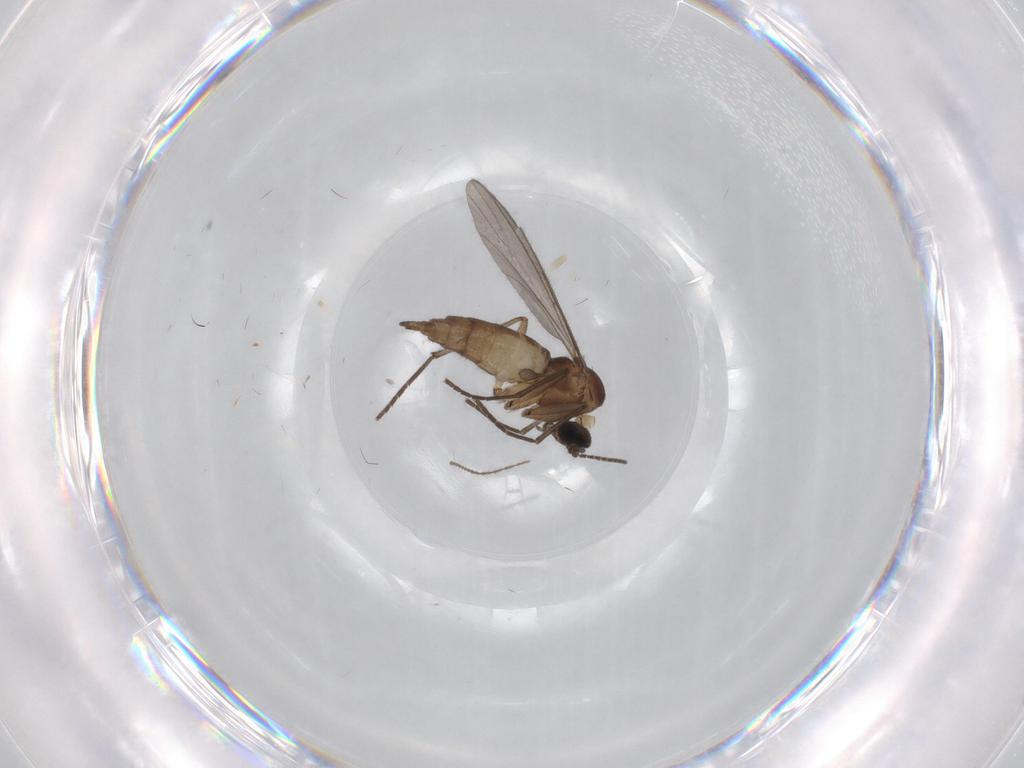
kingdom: Animalia
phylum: Arthropoda
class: Insecta
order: Diptera
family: Sciaridae
